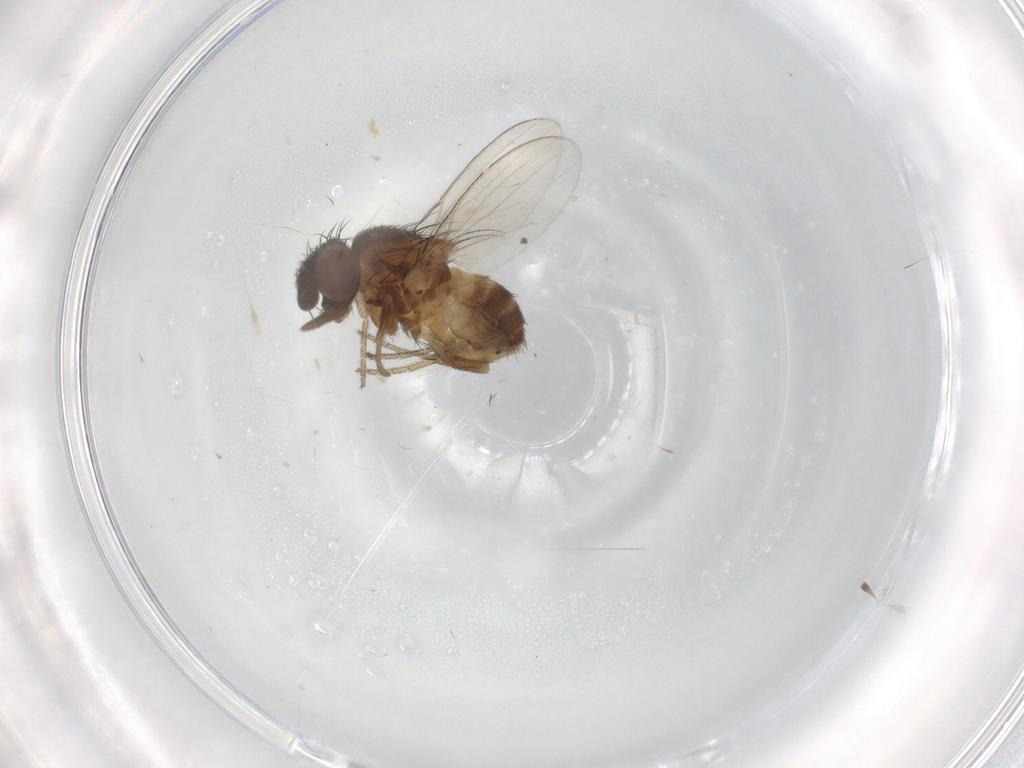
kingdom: Animalia
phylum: Arthropoda
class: Insecta
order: Diptera
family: Milichiidae
